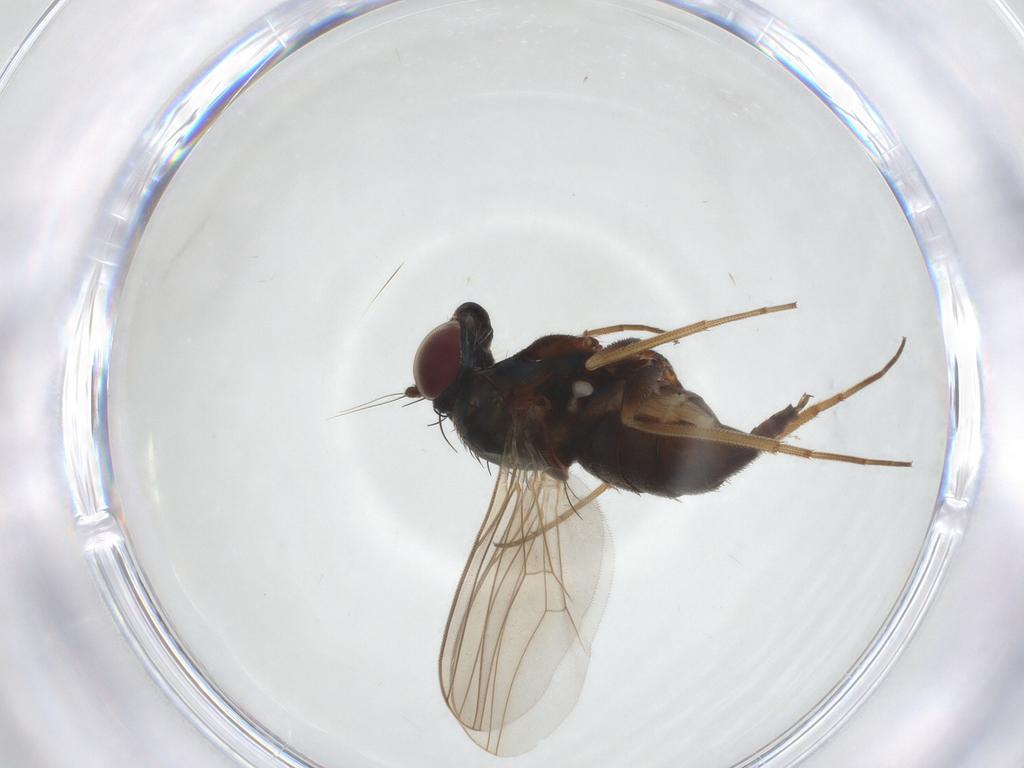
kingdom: Animalia
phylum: Arthropoda
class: Insecta
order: Diptera
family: Dolichopodidae
